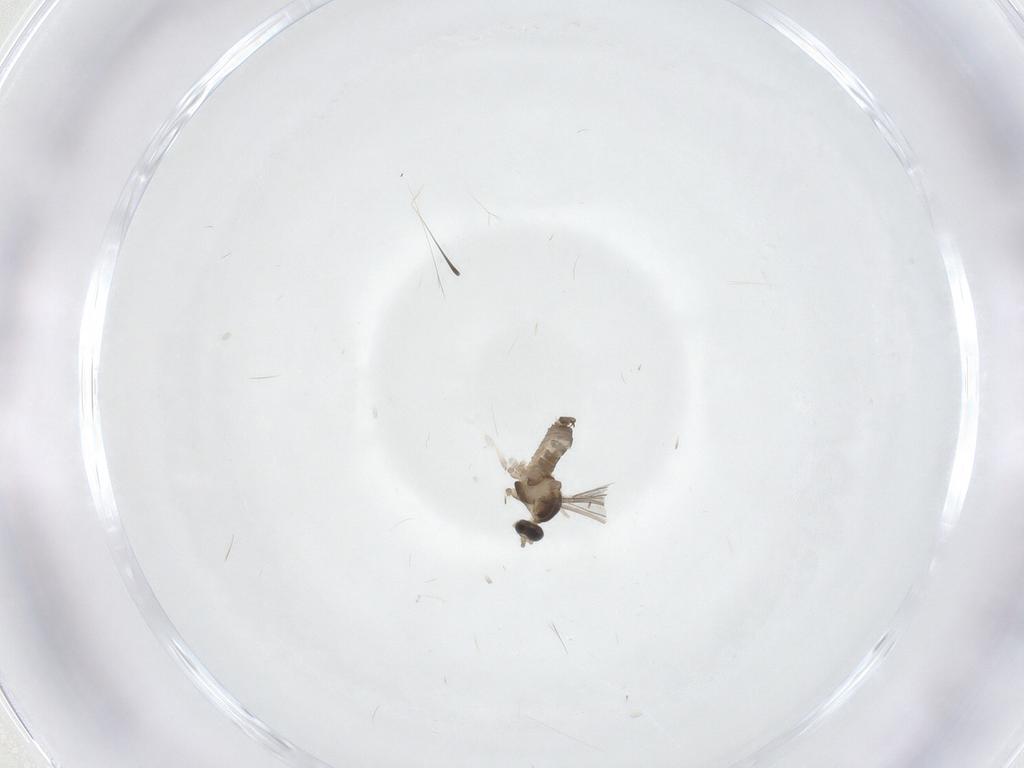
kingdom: Animalia
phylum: Arthropoda
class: Insecta
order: Diptera
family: Cecidomyiidae
